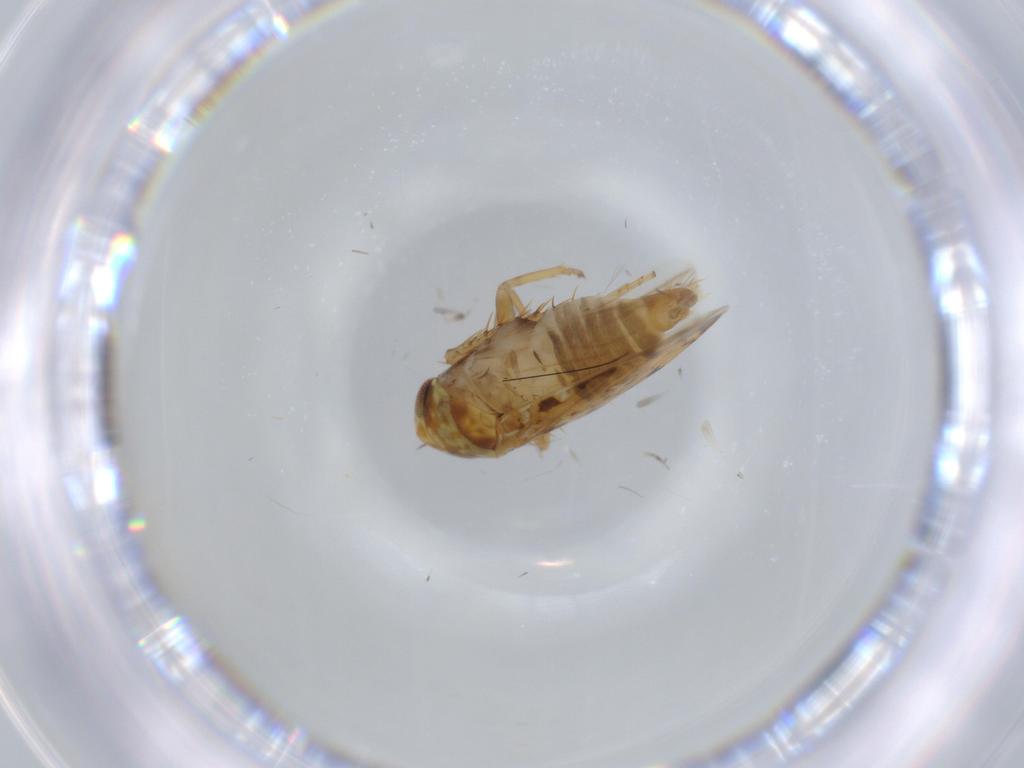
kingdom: Animalia
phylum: Arthropoda
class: Insecta
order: Hemiptera
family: Cicadellidae
